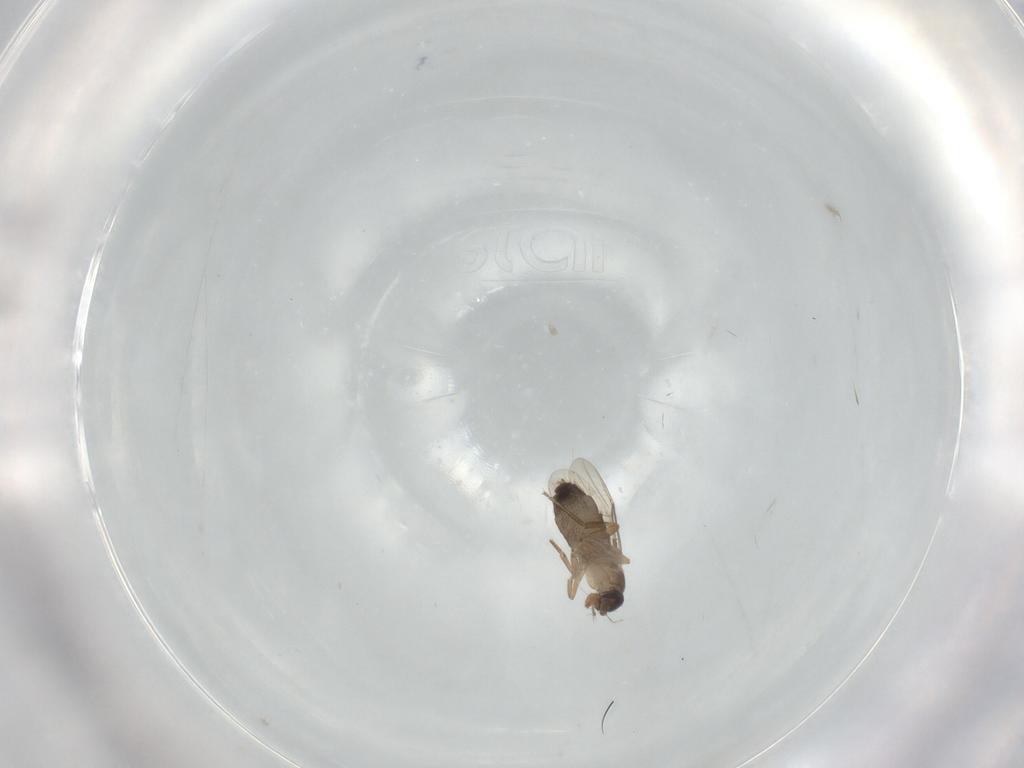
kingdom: Animalia
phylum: Arthropoda
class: Insecta
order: Diptera
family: Phoridae
